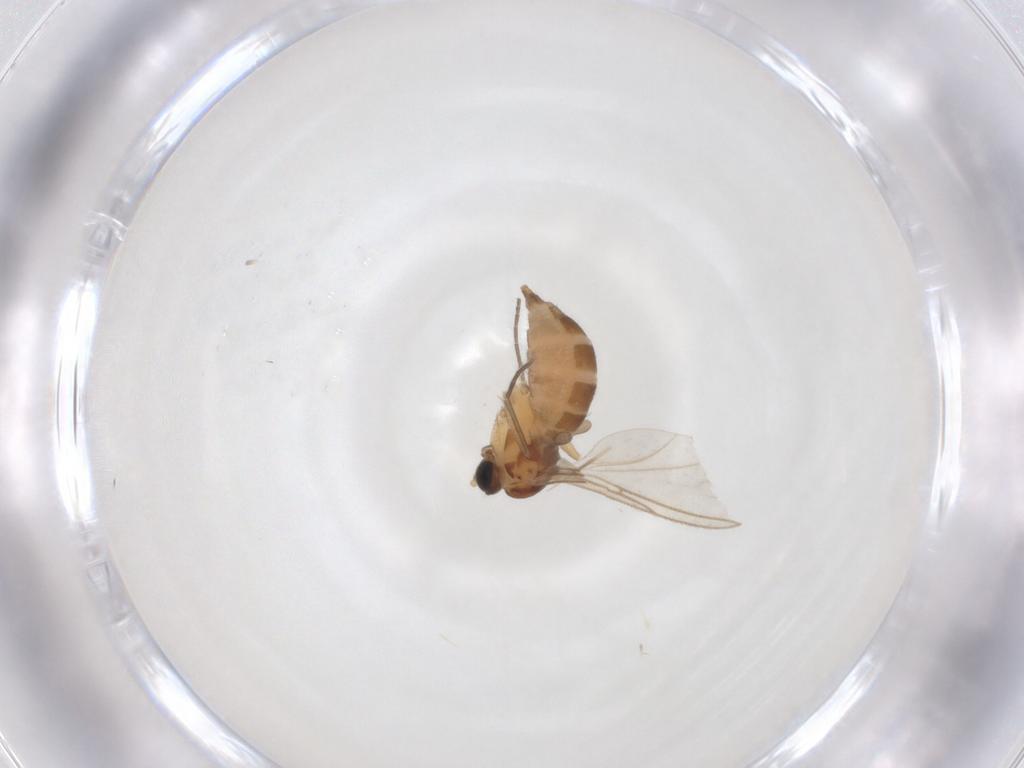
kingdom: Animalia
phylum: Arthropoda
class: Insecta
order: Diptera
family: Sciaridae
